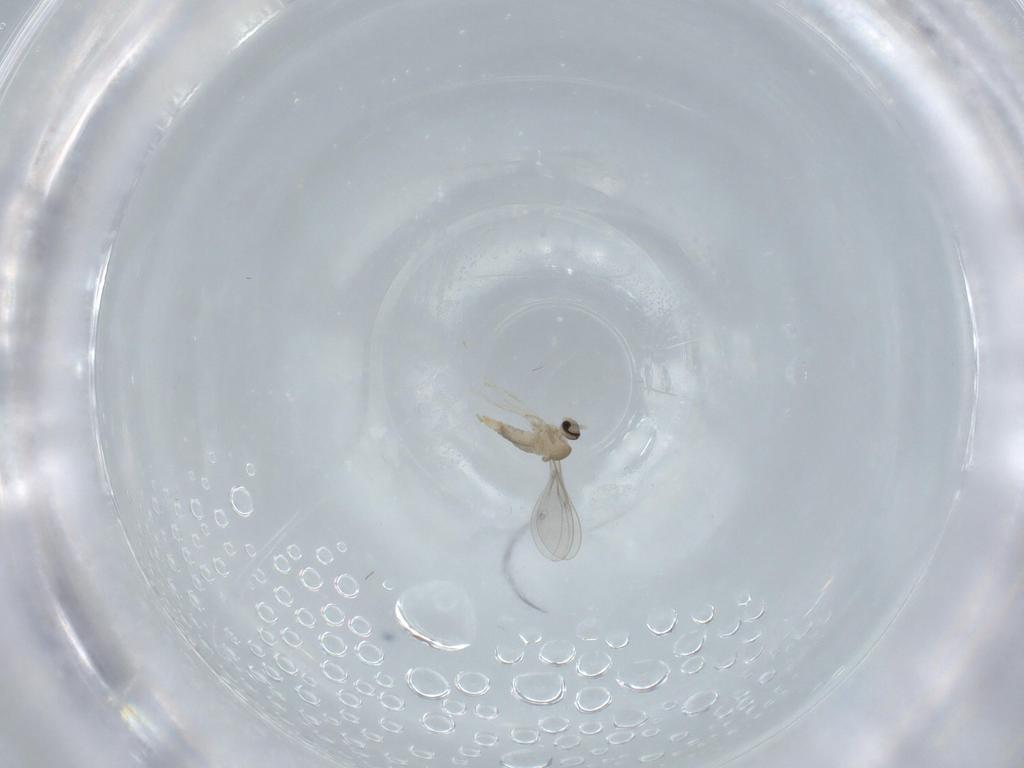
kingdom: Animalia
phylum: Arthropoda
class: Insecta
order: Diptera
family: Cecidomyiidae
